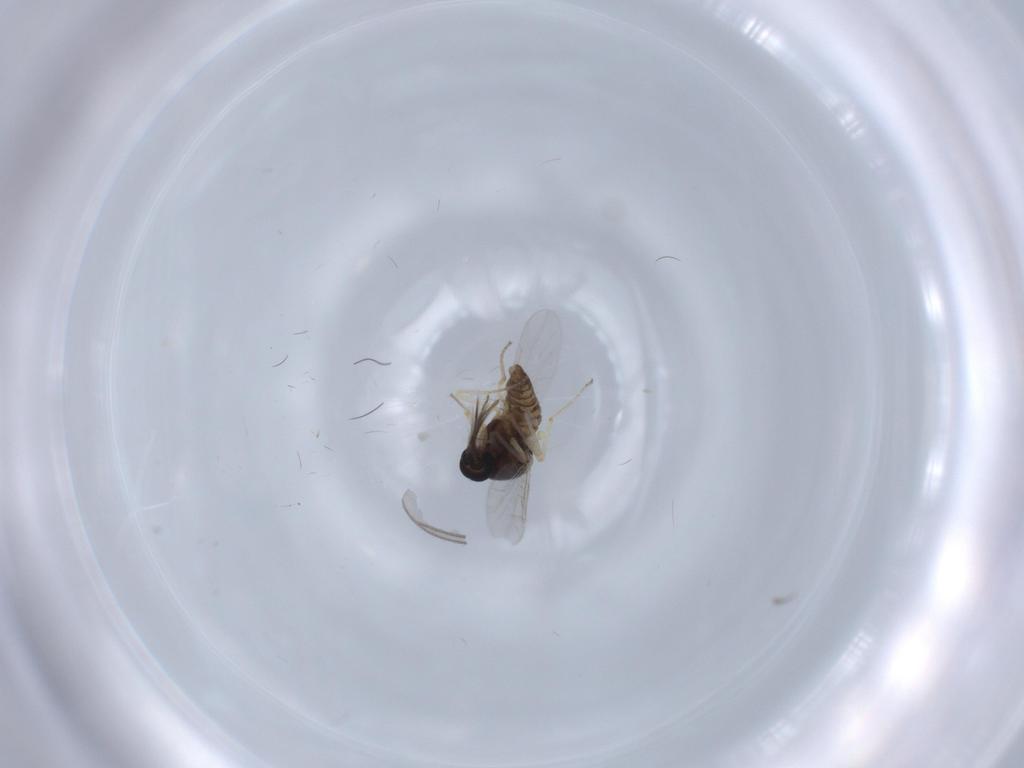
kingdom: Animalia
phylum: Arthropoda
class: Insecta
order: Diptera
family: Ceratopogonidae
